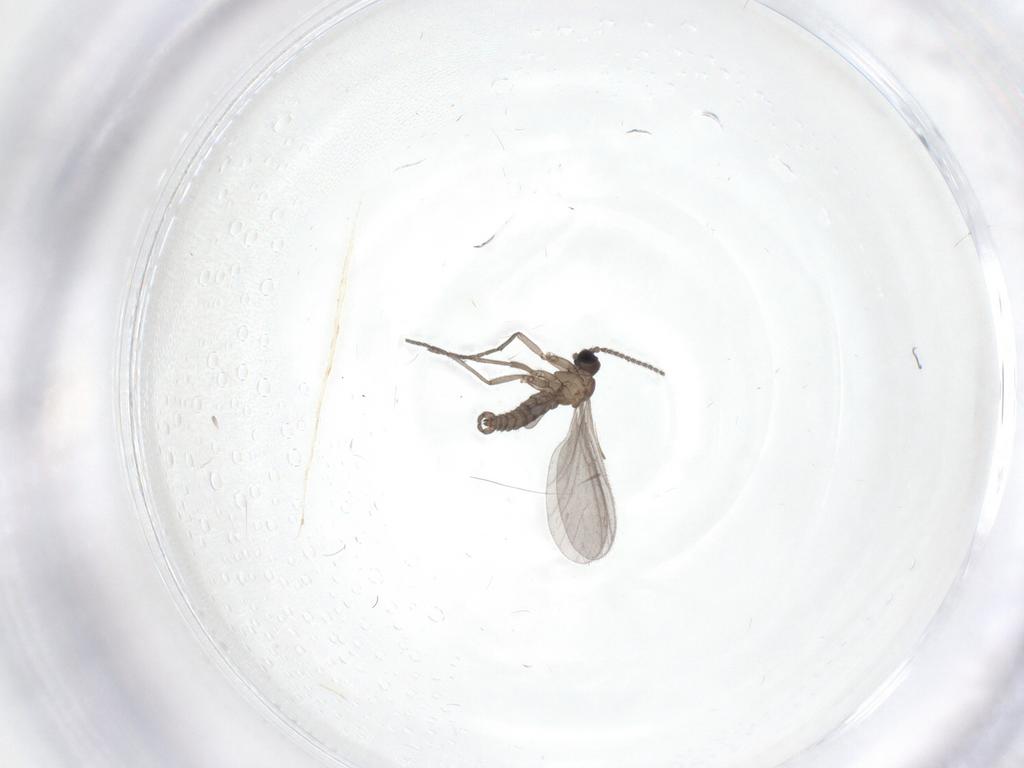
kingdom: Animalia
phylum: Arthropoda
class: Insecta
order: Diptera
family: Sciaridae
